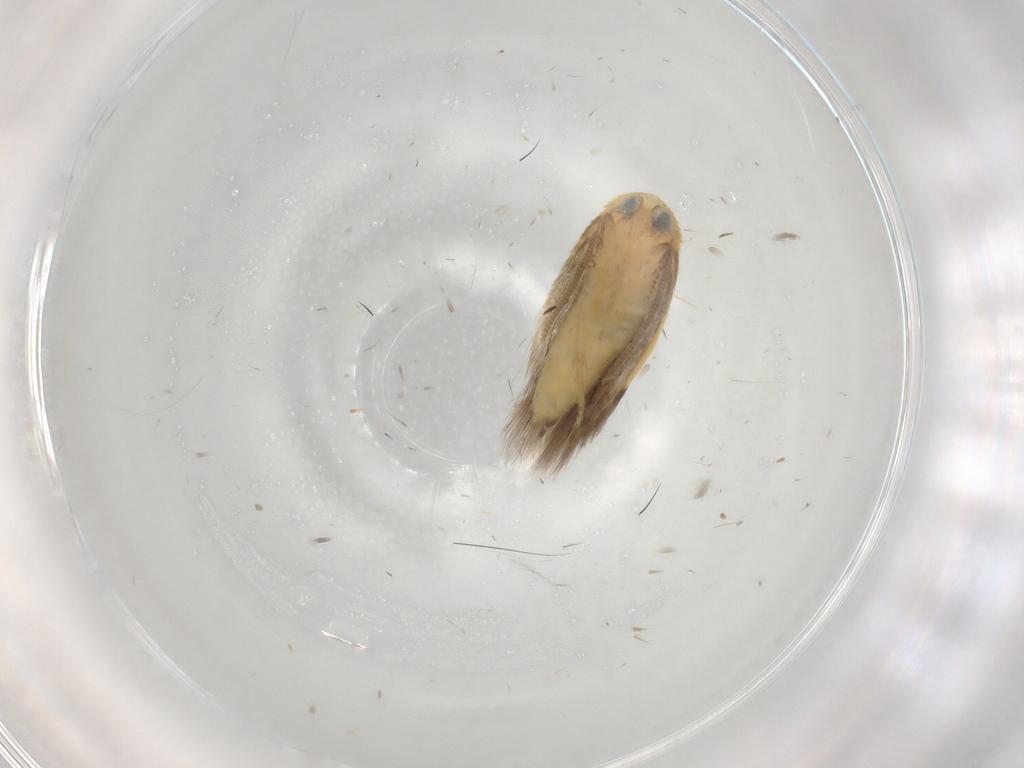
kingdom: Animalia
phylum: Arthropoda
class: Insecta
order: Lepidoptera
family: Opostegidae
